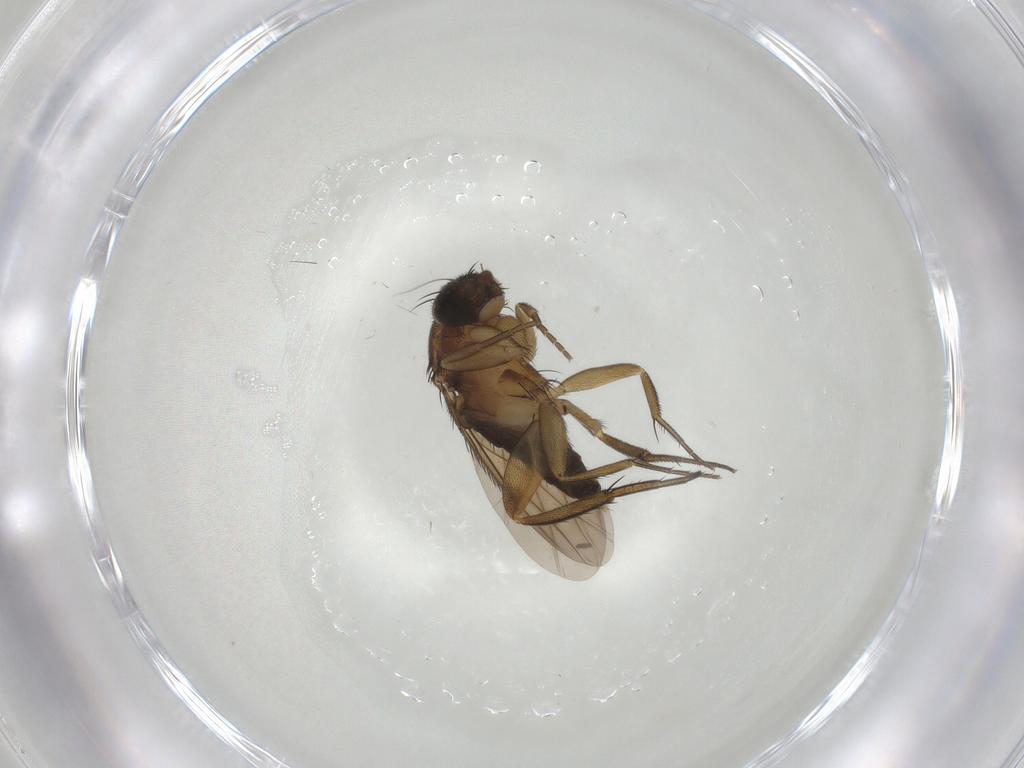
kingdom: Animalia
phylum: Arthropoda
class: Insecta
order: Diptera
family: Phoridae
